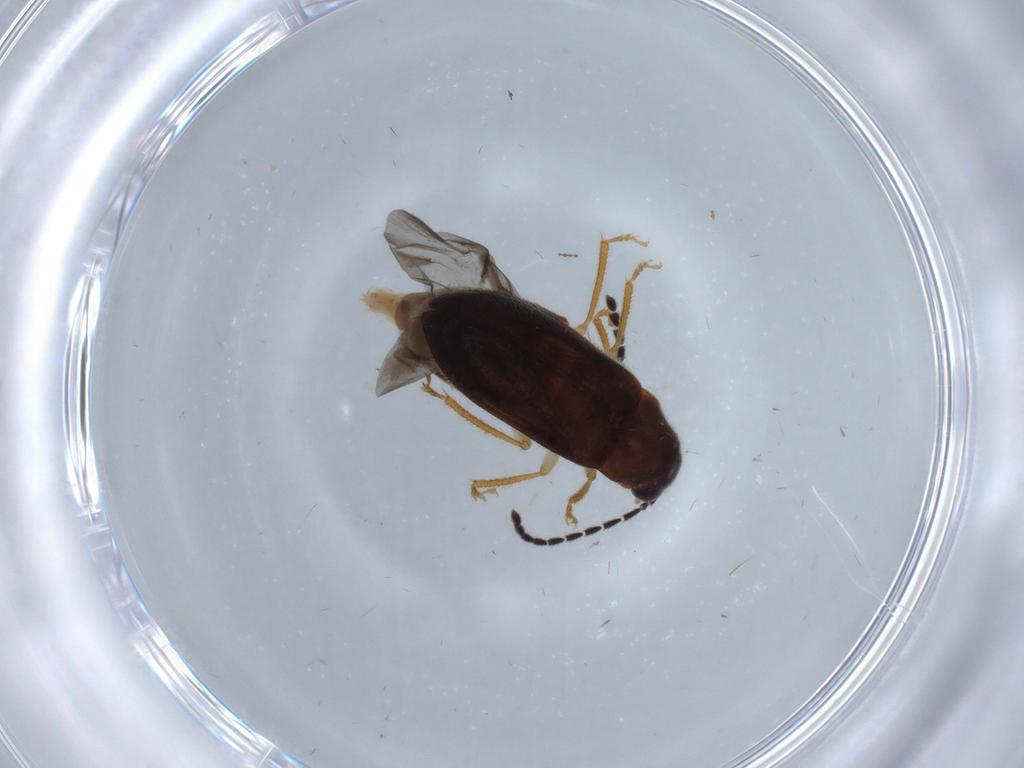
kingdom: Animalia
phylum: Arthropoda
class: Insecta
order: Coleoptera
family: Ptilodactylidae
